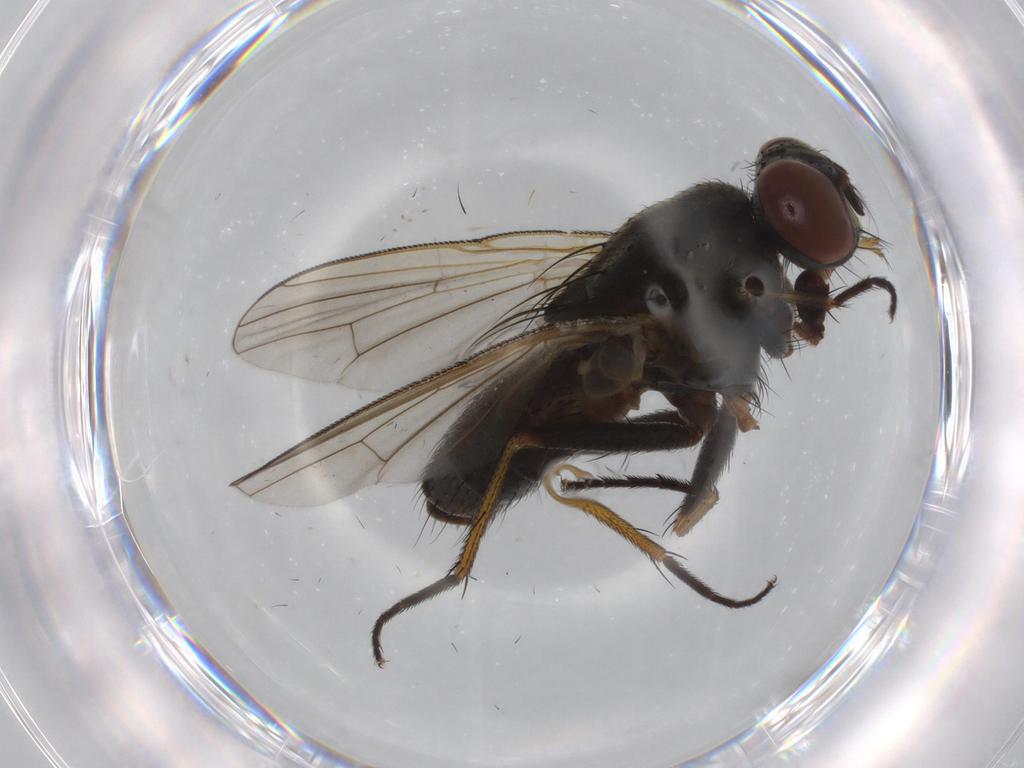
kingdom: Animalia
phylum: Arthropoda
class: Insecta
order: Diptera
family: Muscidae
